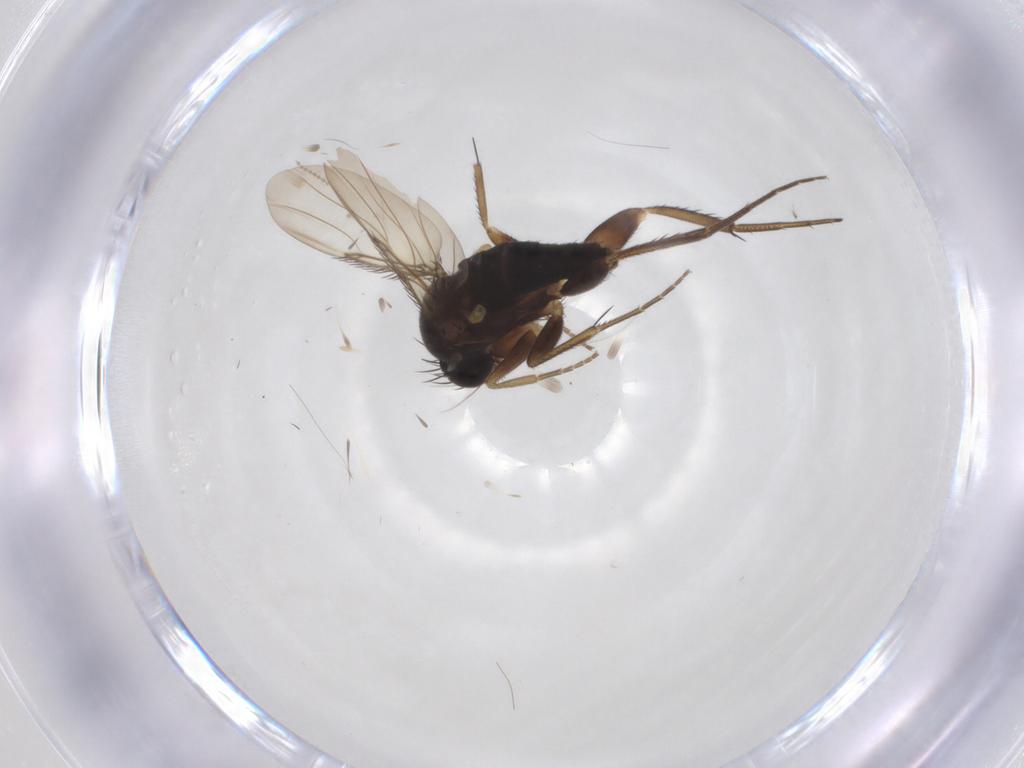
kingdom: Animalia
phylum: Arthropoda
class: Insecta
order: Diptera
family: Phoridae
